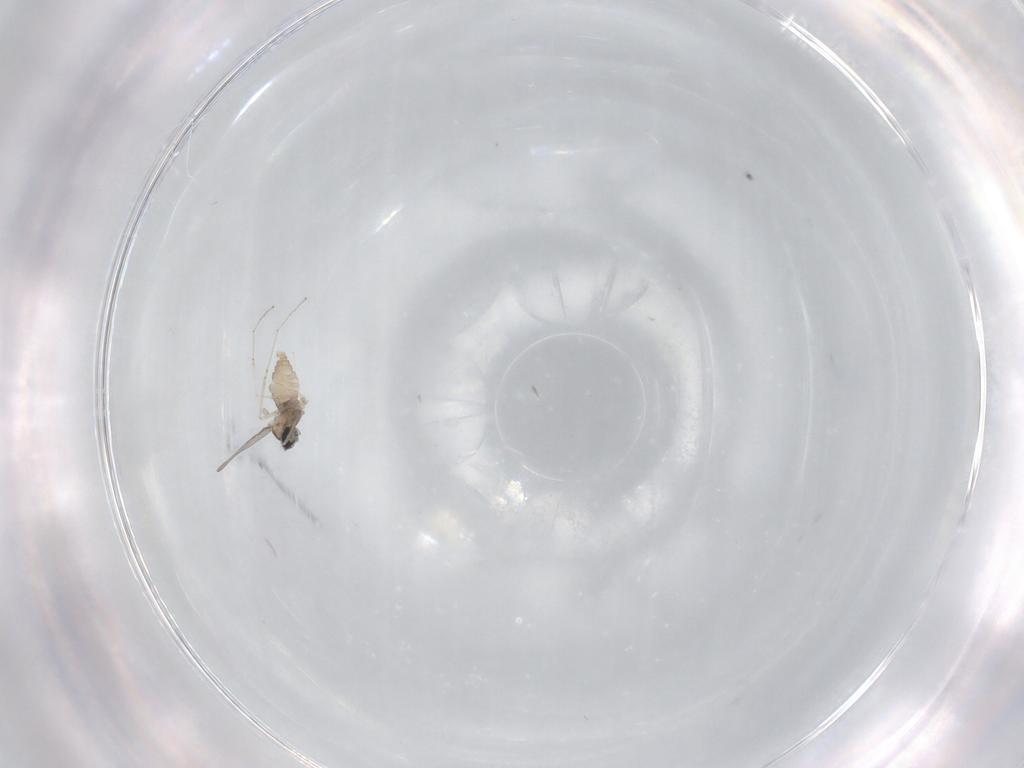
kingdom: Animalia
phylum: Arthropoda
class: Insecta
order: Diptera
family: Cecidomyiidae
